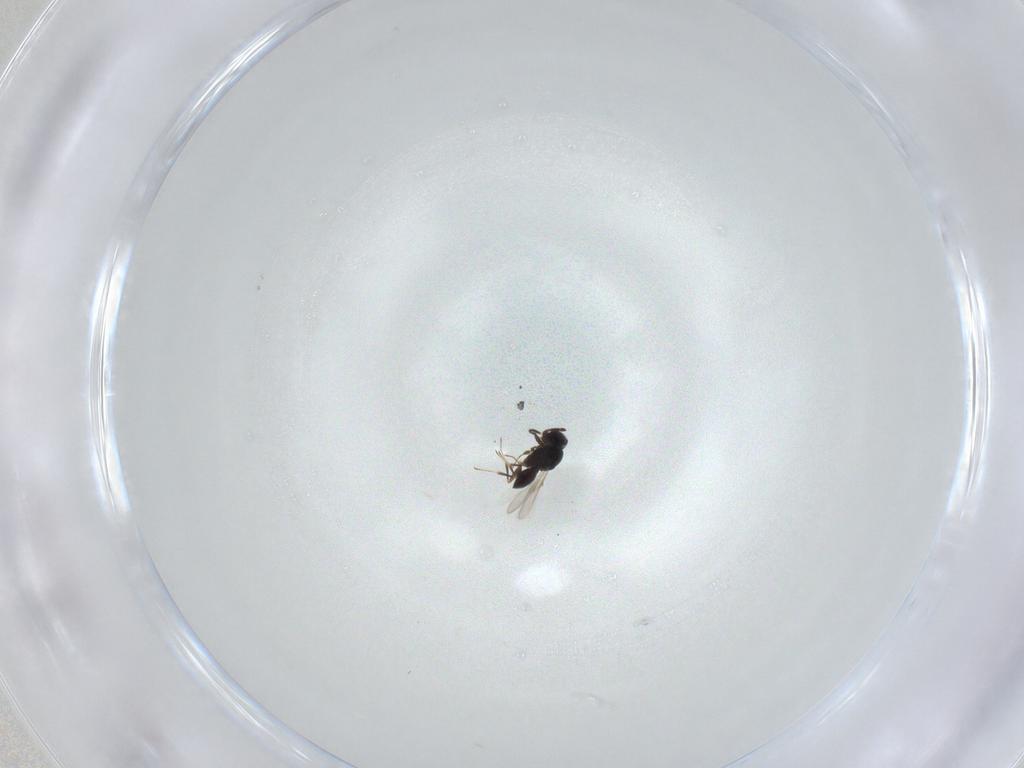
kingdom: Animalia
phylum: Arthropoda
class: Insecta
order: Hymenoptera
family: Scelionidae
